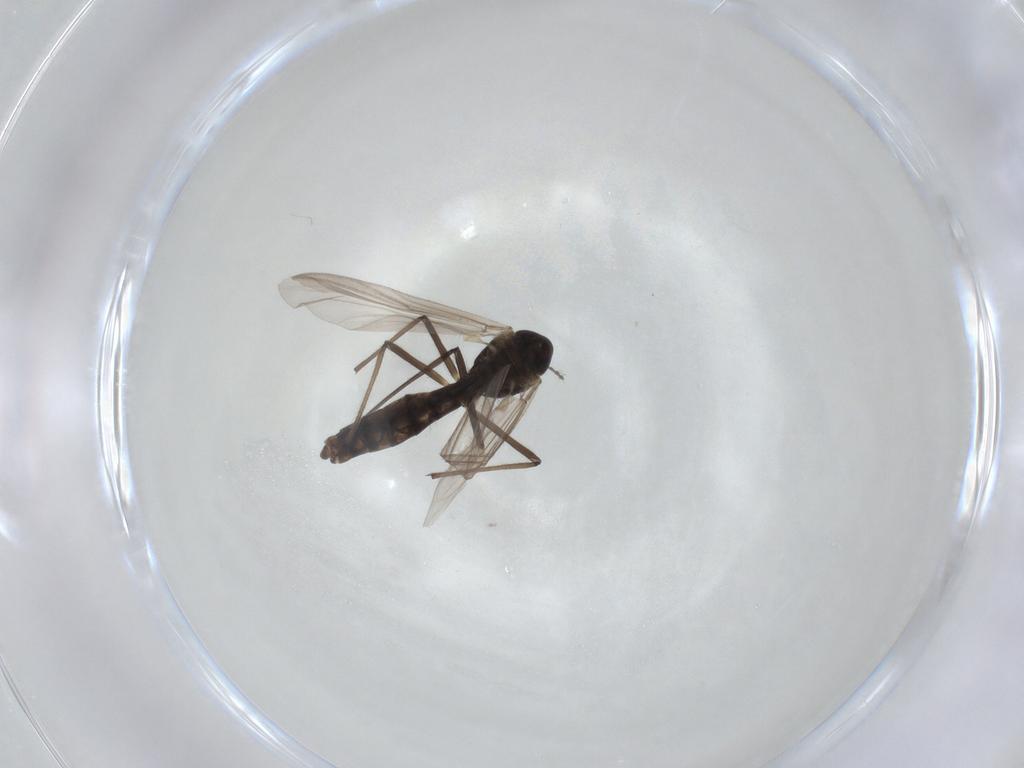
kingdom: Animalia
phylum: Arthropoda
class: Insecta
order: Diptera
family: Chironomidae
